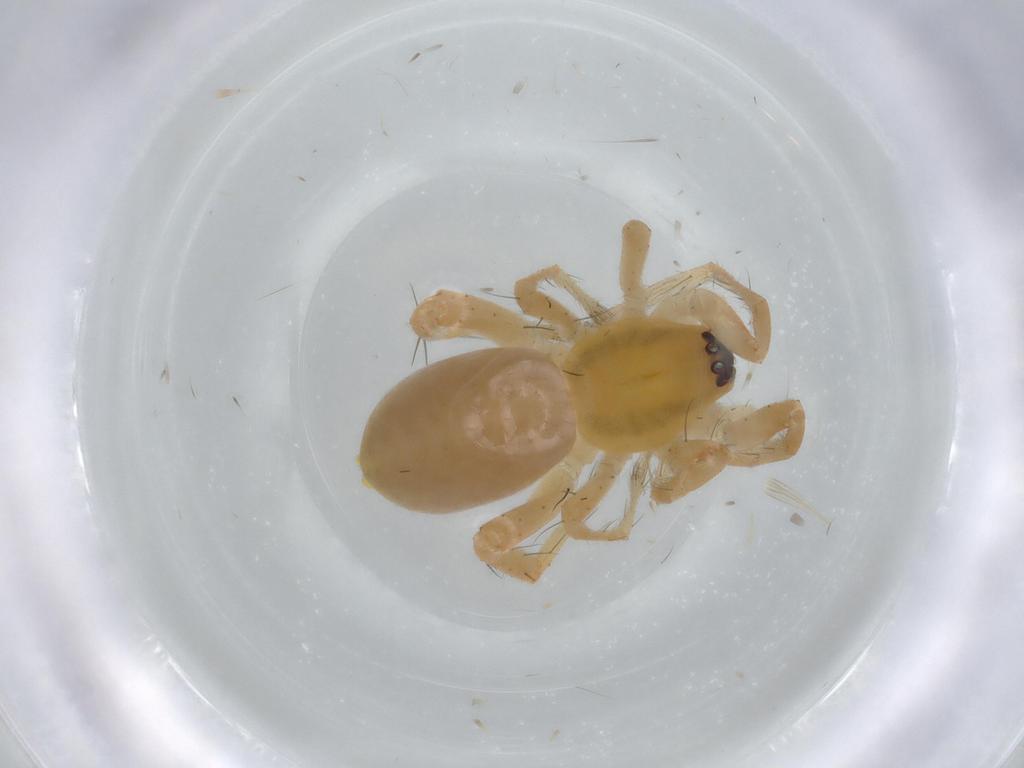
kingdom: Animalia
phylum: Arthropoda
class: Arachnida
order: Araneae
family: Anyphaenidae
